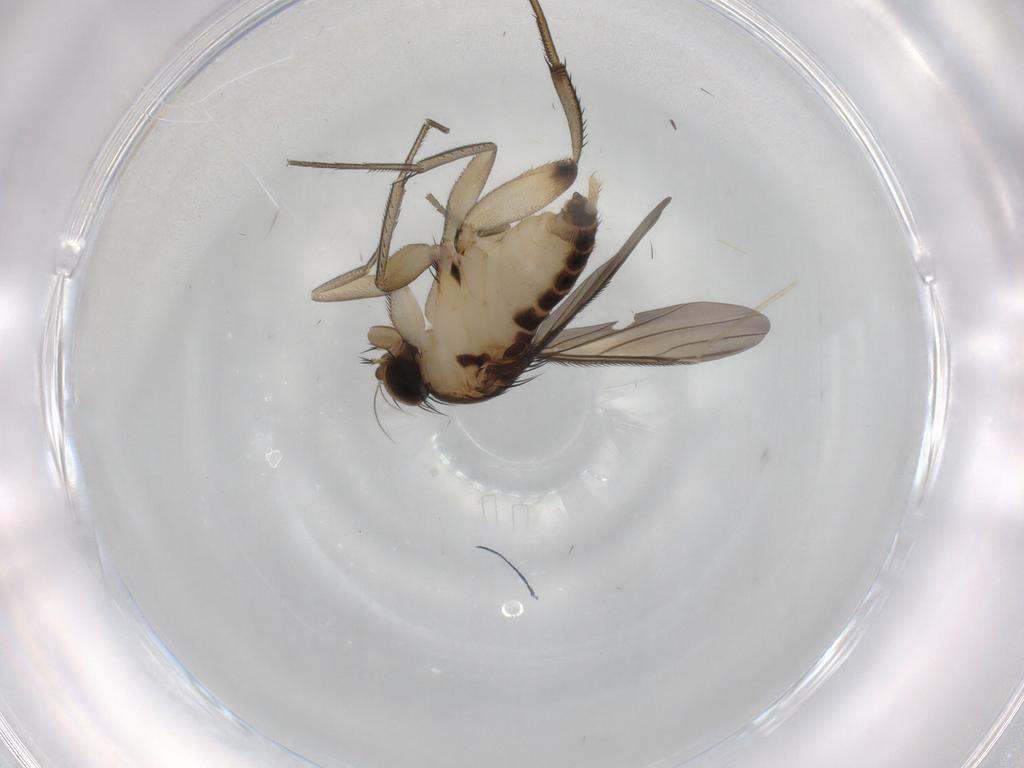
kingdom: Animalia
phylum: Arthropoda
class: Insecta
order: Diptera
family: Phoridae
